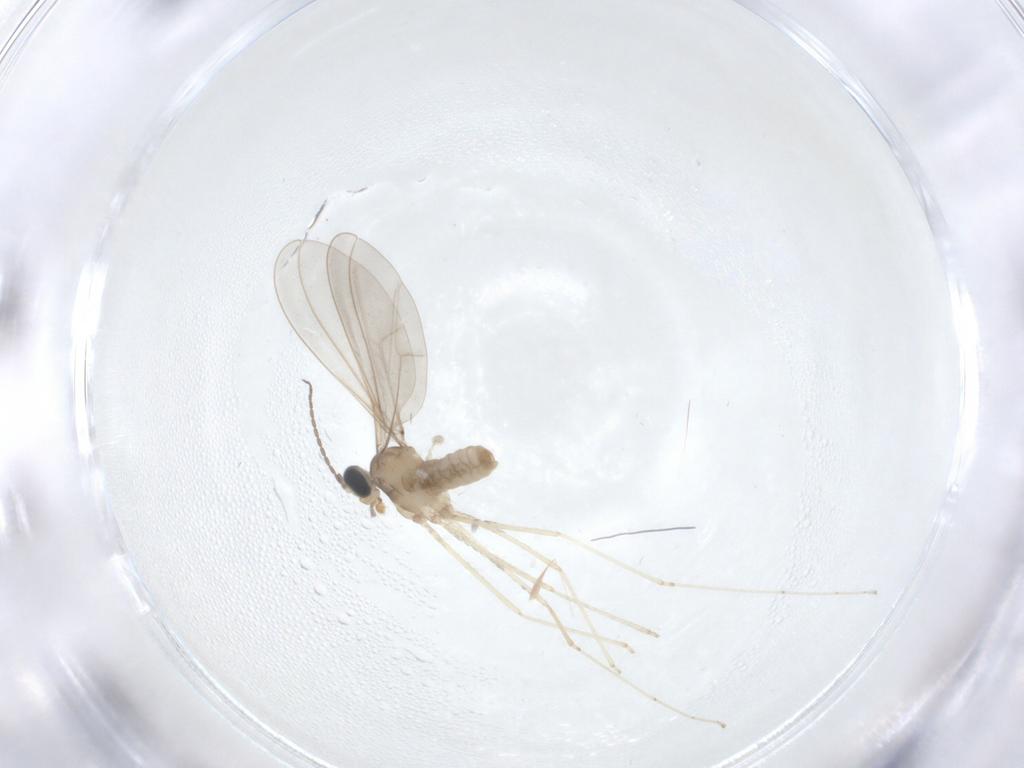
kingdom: Animalia
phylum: Arthropoda
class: Insecta
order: Diptera
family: Cecidomyiidae
